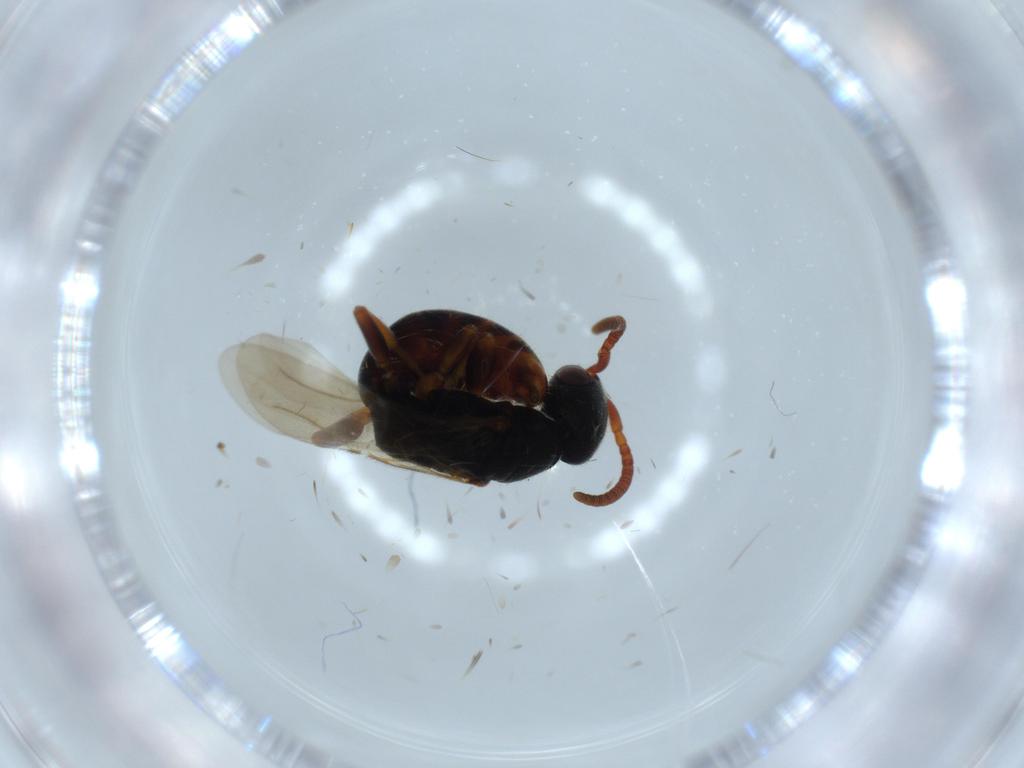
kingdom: Animalia
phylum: Arthropoda
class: Insecta
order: Hymenoptera
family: Bethylidae
